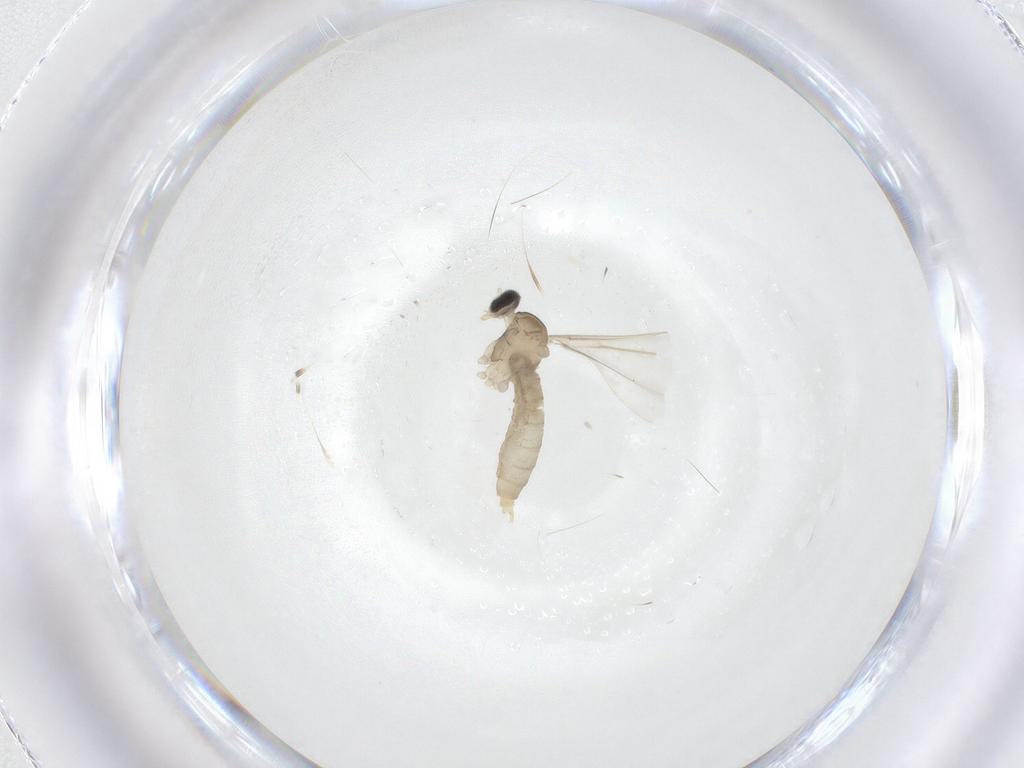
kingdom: Animalia
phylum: Arthropoda
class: Insecta
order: Diptera
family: Cecidomyiidae
